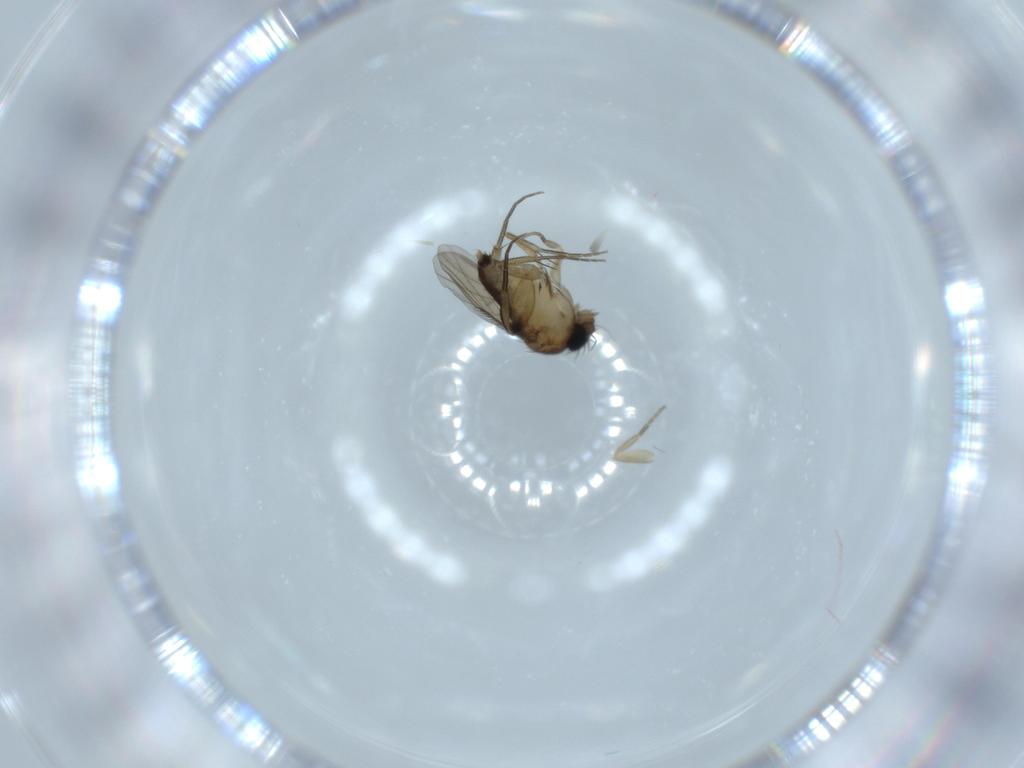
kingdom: Animalia
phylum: Arthropoda
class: Insecta
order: Diptera
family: Phoridae
